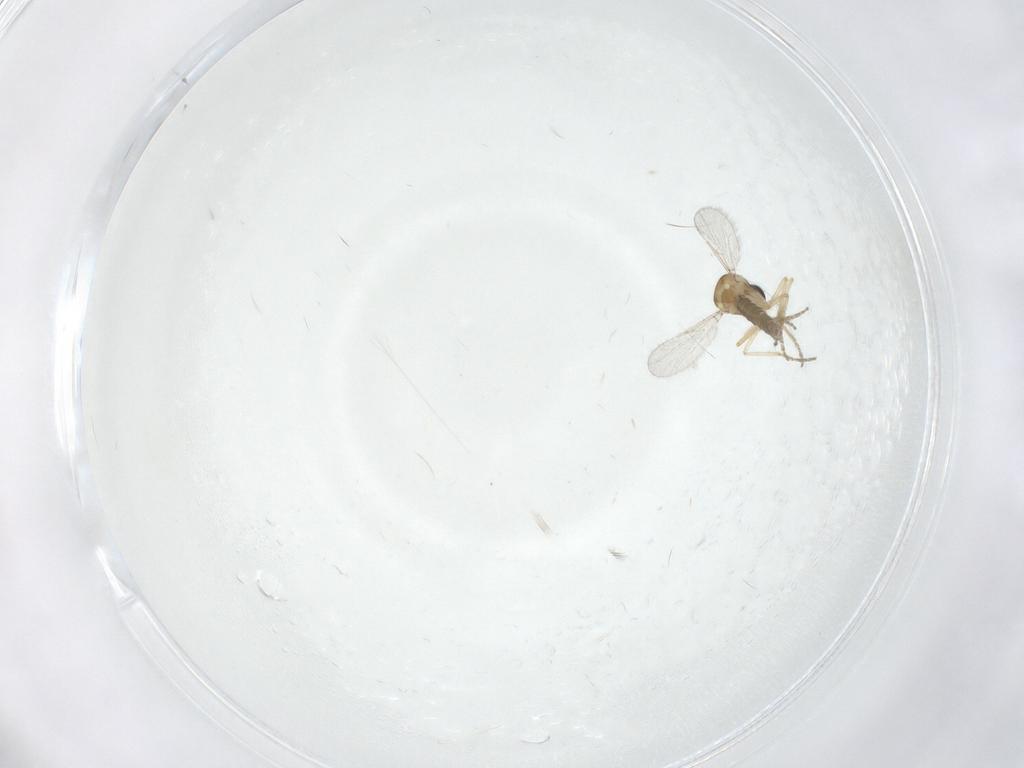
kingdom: Animalia
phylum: Arthropoda
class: Insecta
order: Diptera
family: Ceratopogonidae
